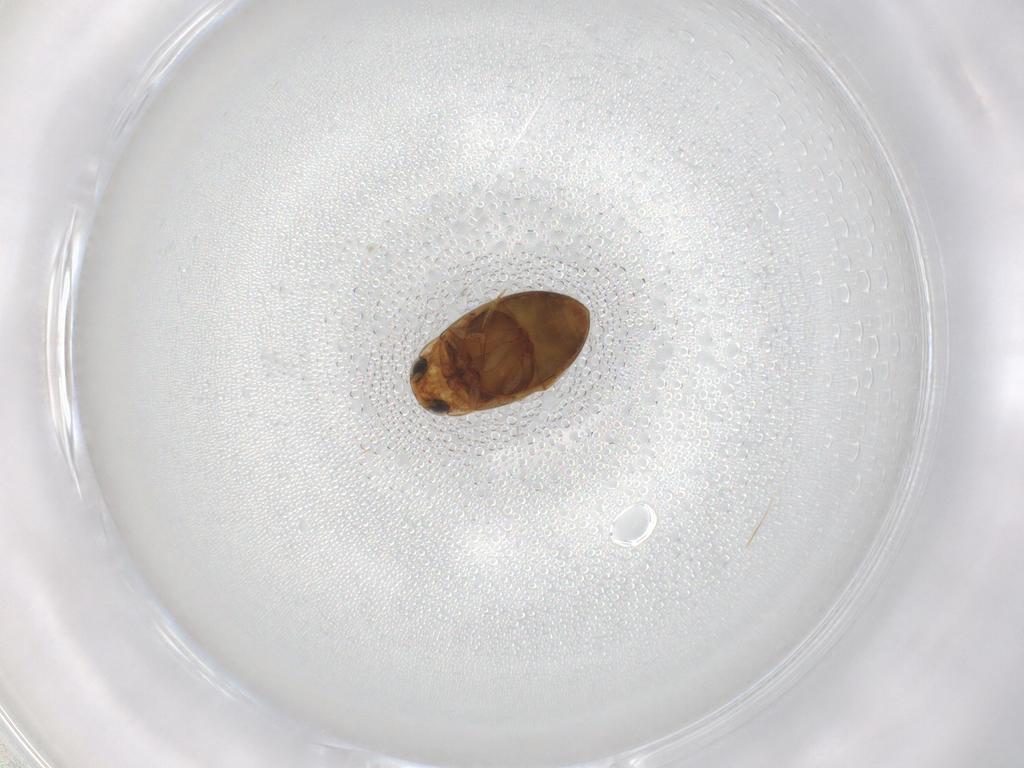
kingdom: Animalia
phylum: Arthropoda
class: Insecta
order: Coleoptera
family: Dytiscidae
